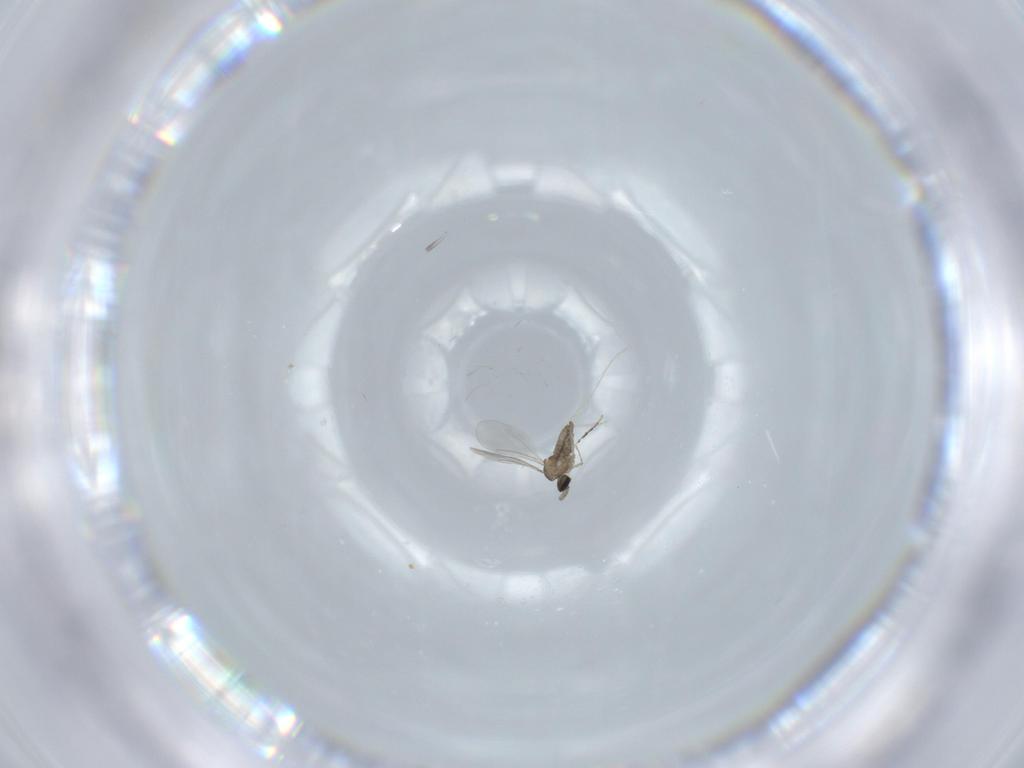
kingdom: Animalia
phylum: Arthropoda
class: Insecta
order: Diptera
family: Cecidomyiidae
